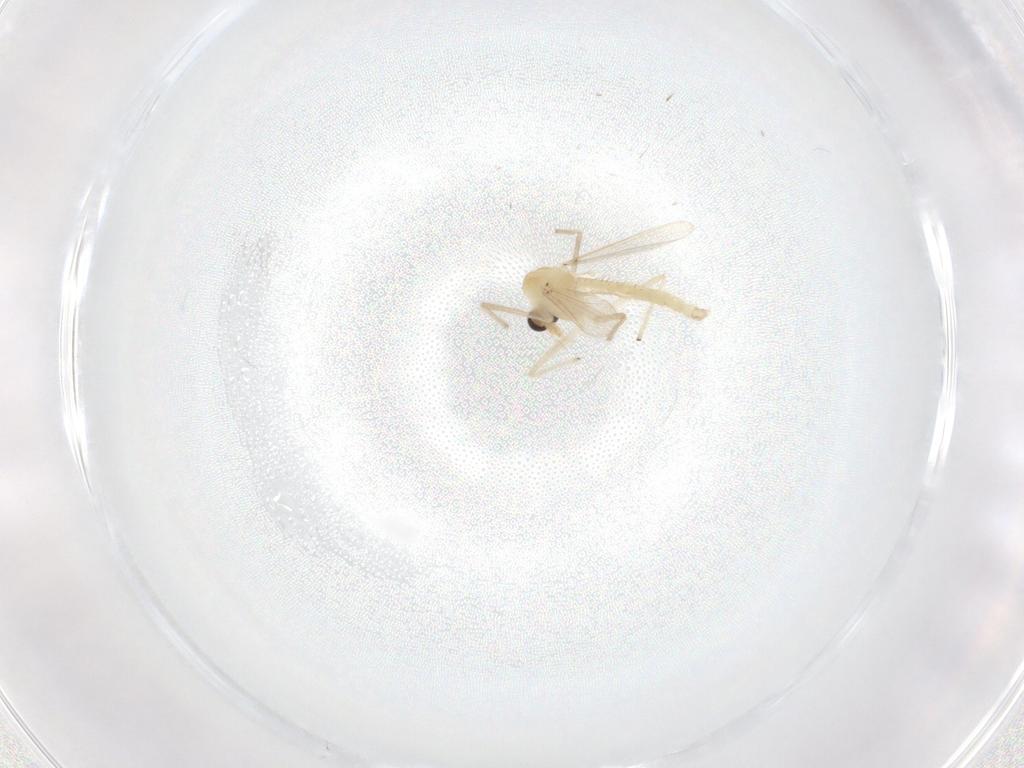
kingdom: Animalia
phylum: Arthropoda
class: Insecta
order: Diptera
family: Chironomidae
